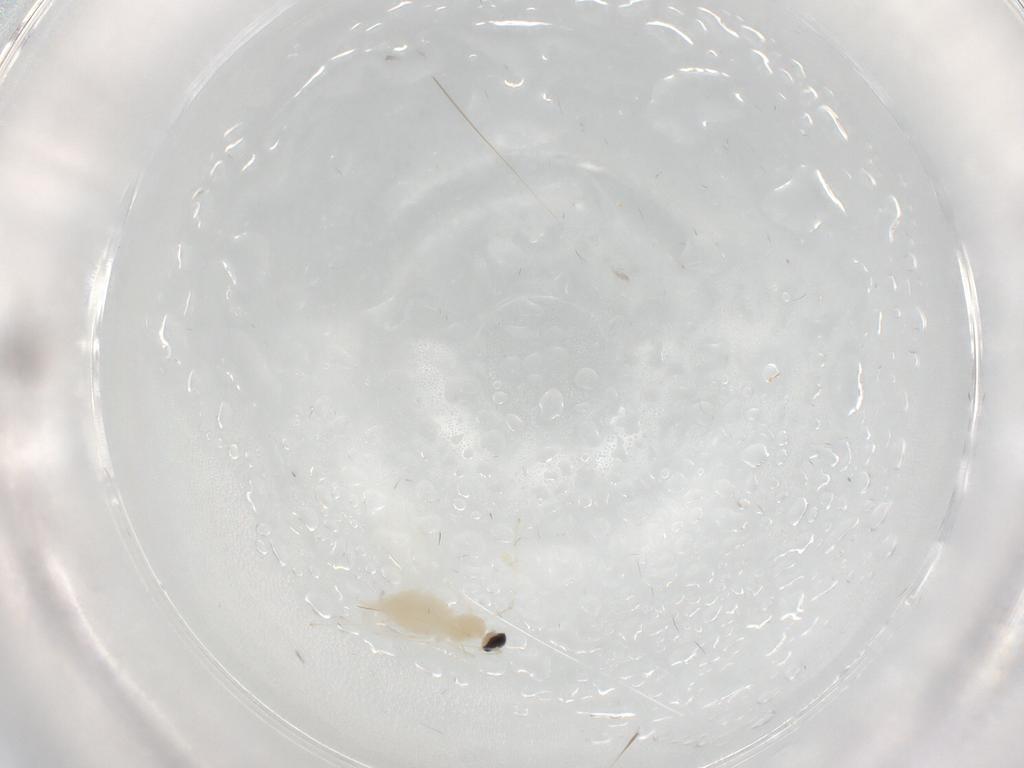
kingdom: Animalia
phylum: Arthropoda
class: Insecta
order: Diptera
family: Cecidomyiidae
